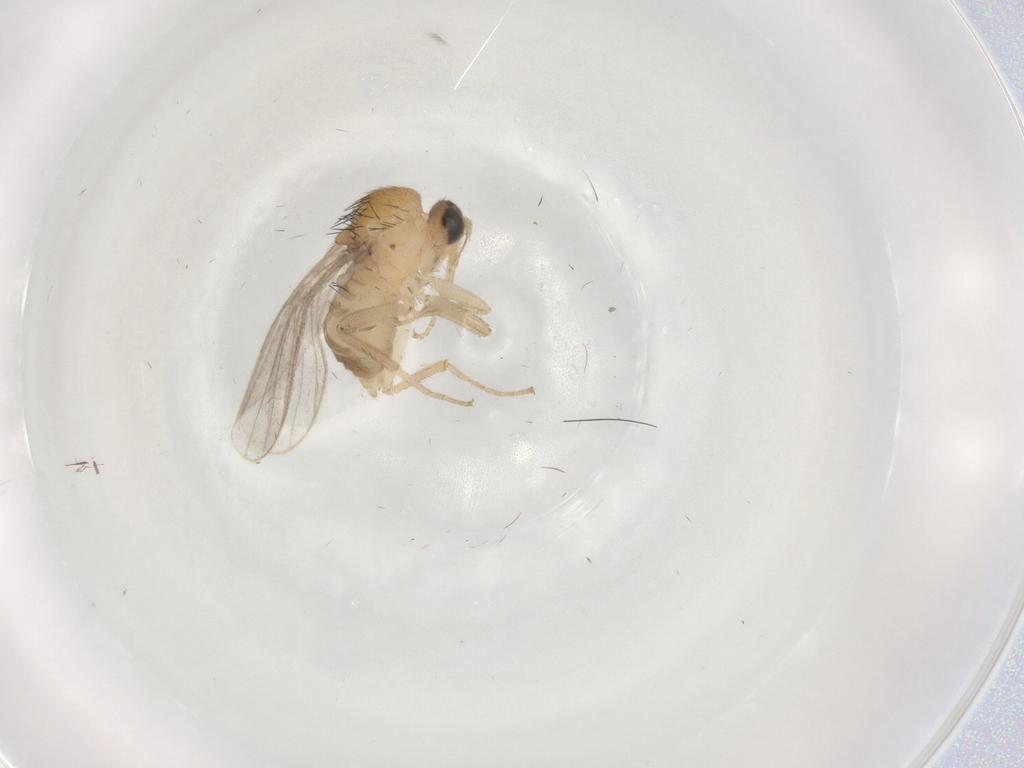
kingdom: Animalia
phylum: Arthropoda
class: Insecta
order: Diptera
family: Hybotidae
